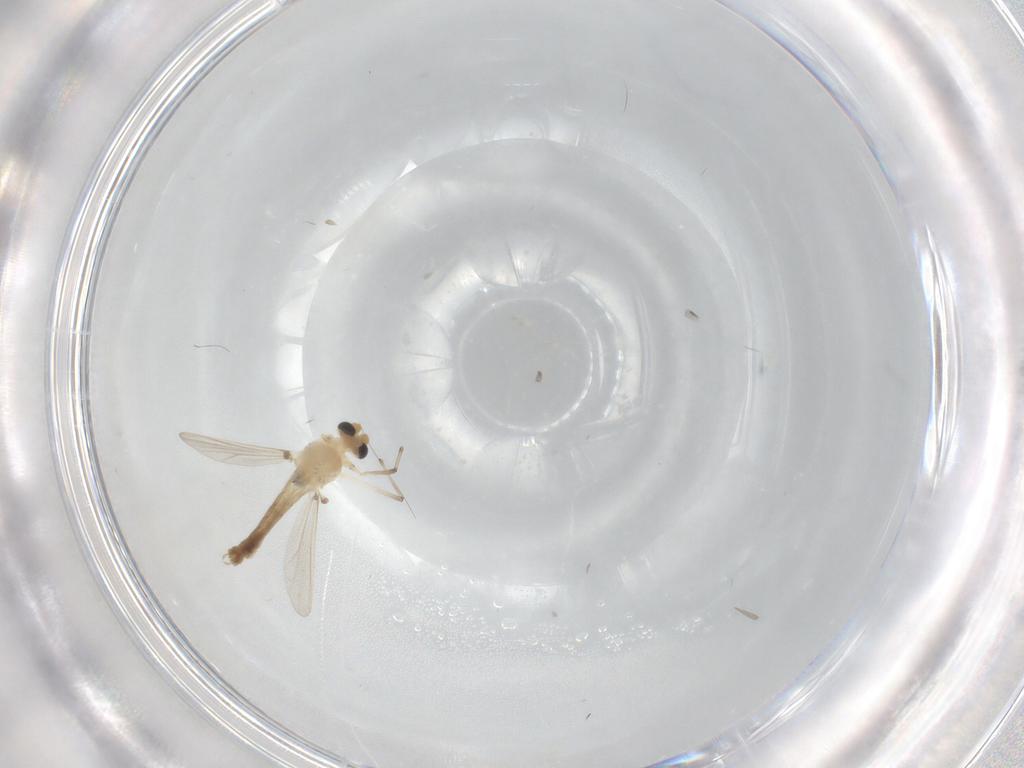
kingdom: Animalia
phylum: Arthropoda
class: Insecta
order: Diptera
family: Chironomidae
